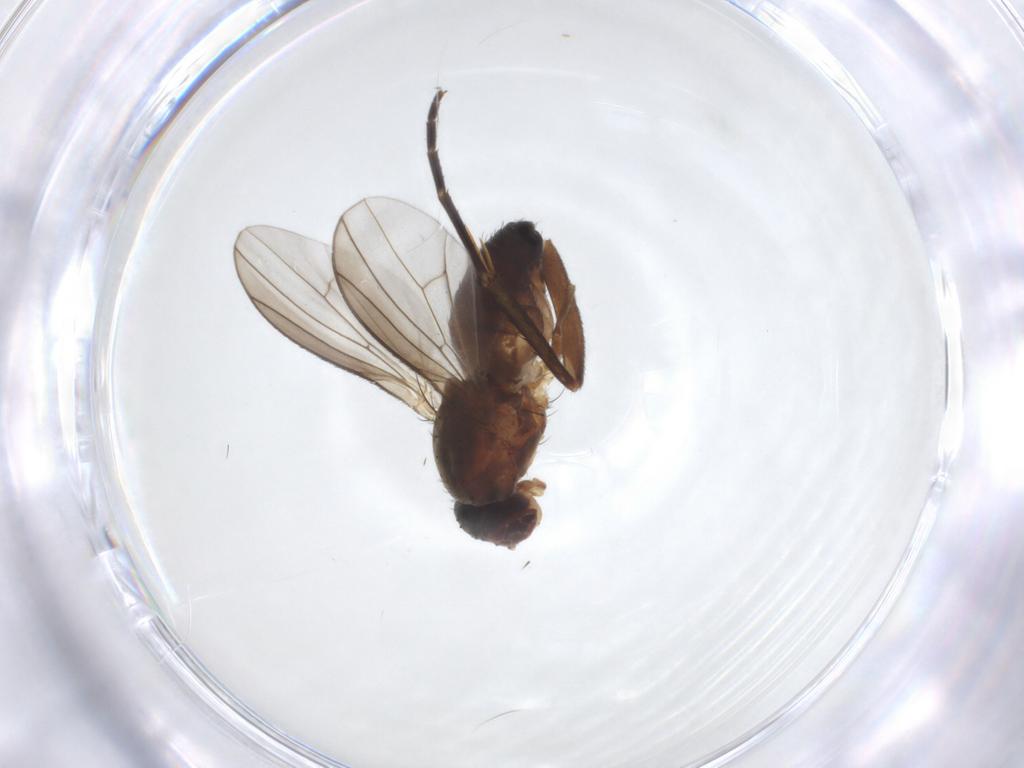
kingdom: Animalia
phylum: Arthropoda
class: Insecta
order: Diptera
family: Heleomyzidae
